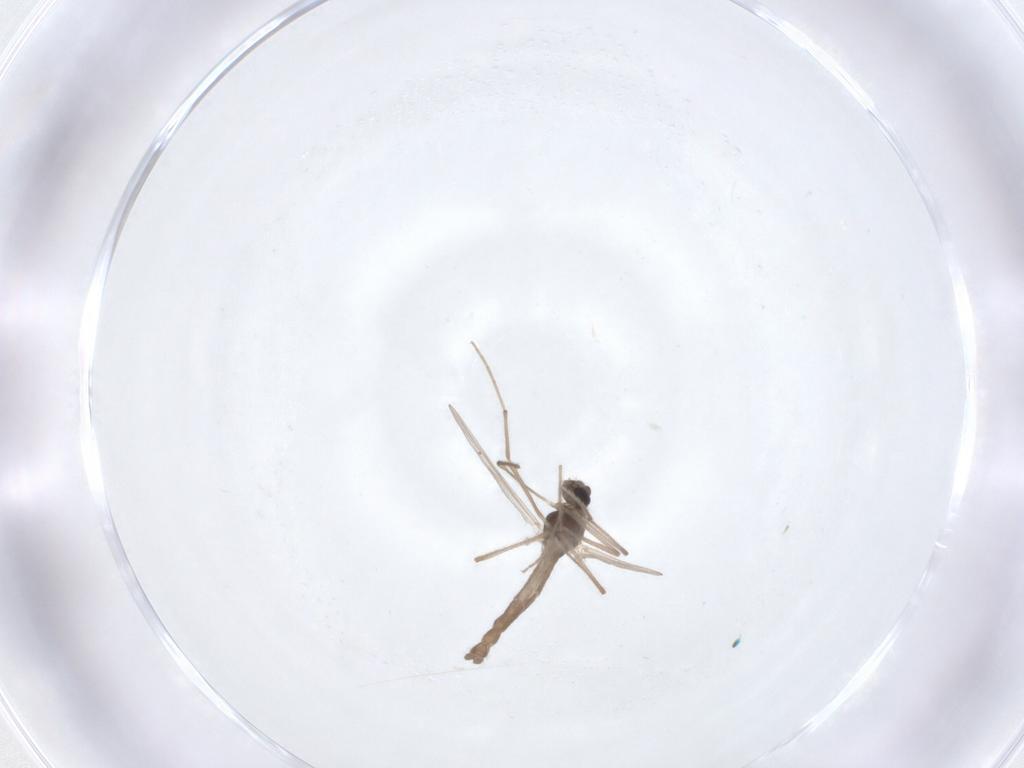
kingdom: Animalia
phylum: Arthropoda
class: Insecta
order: Diptera
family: Chironomidae
